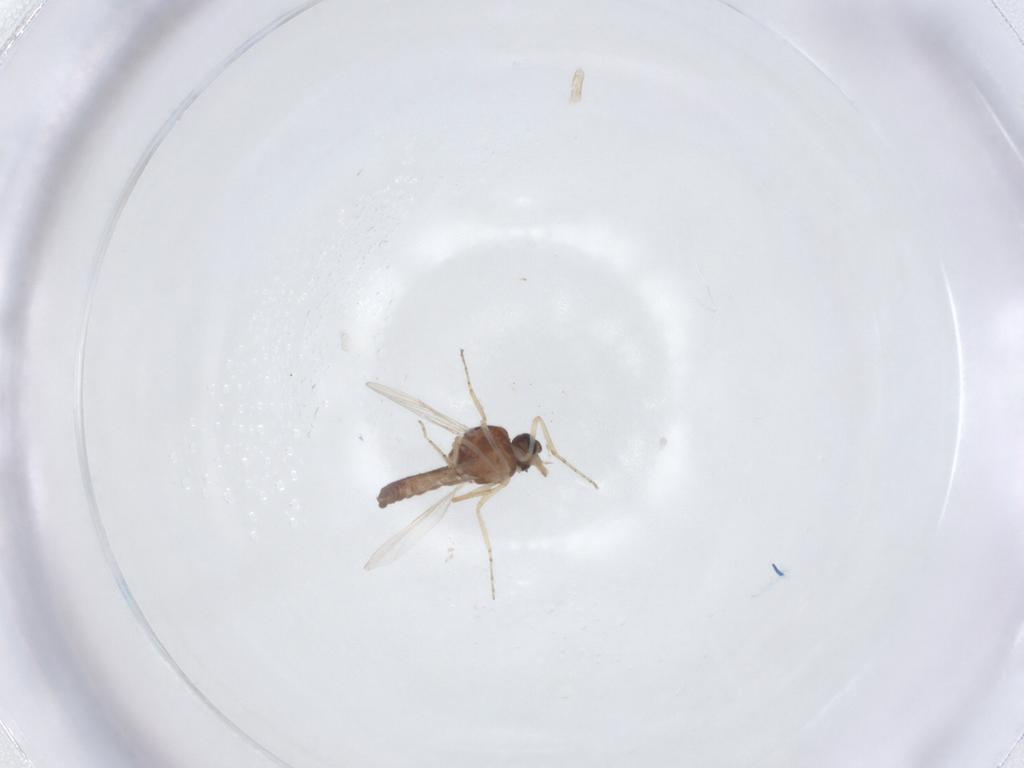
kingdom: Animalia
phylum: Arthropoda
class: Insecta
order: Diptera
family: Ceratopogonidae
